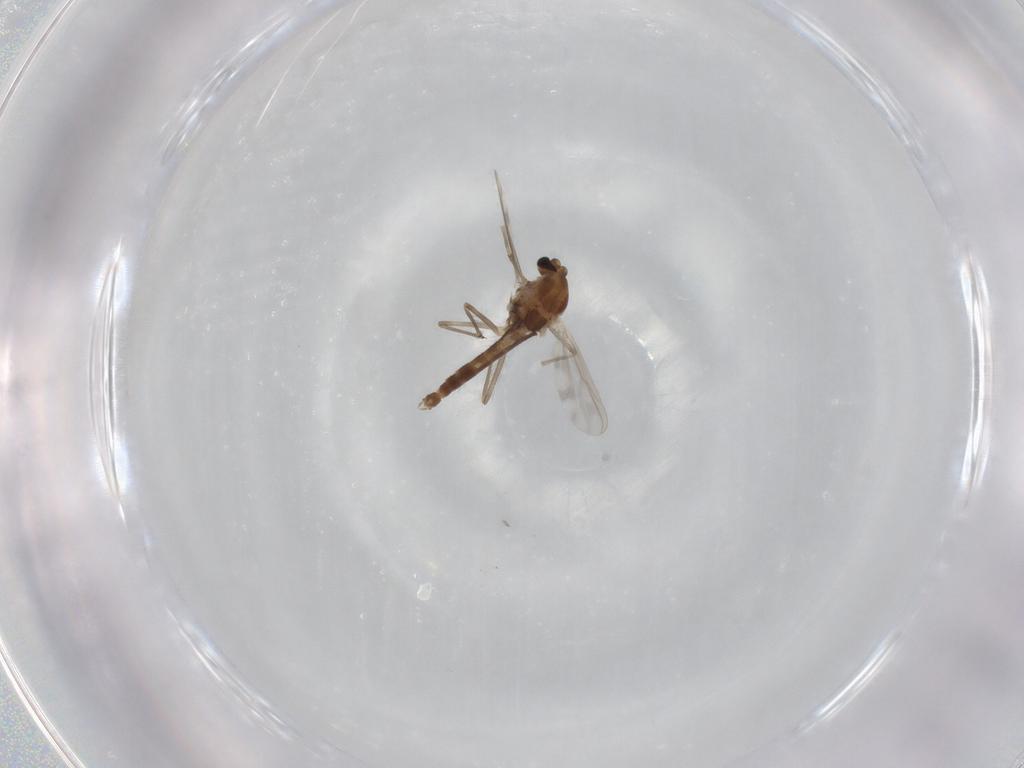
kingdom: Animalia
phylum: Arthropoda
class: Insecta
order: Diptera
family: Chironomidae
